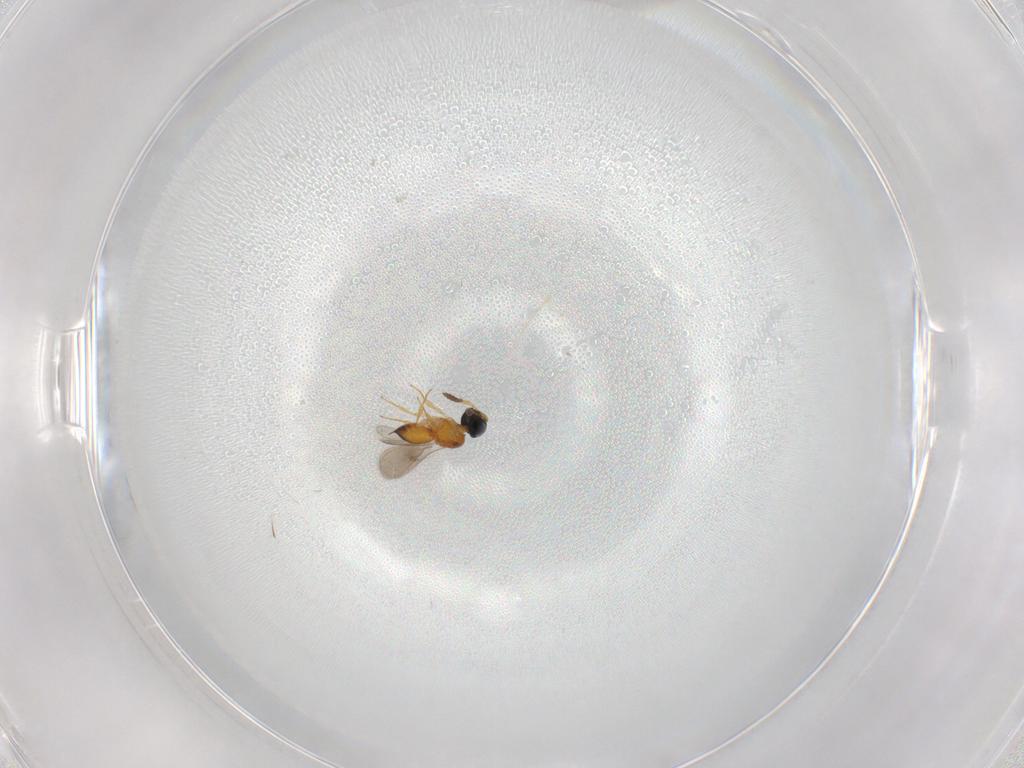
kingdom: Animalia
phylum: Arthropoda
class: Insecta
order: Hymenoptera
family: Scelionidae
